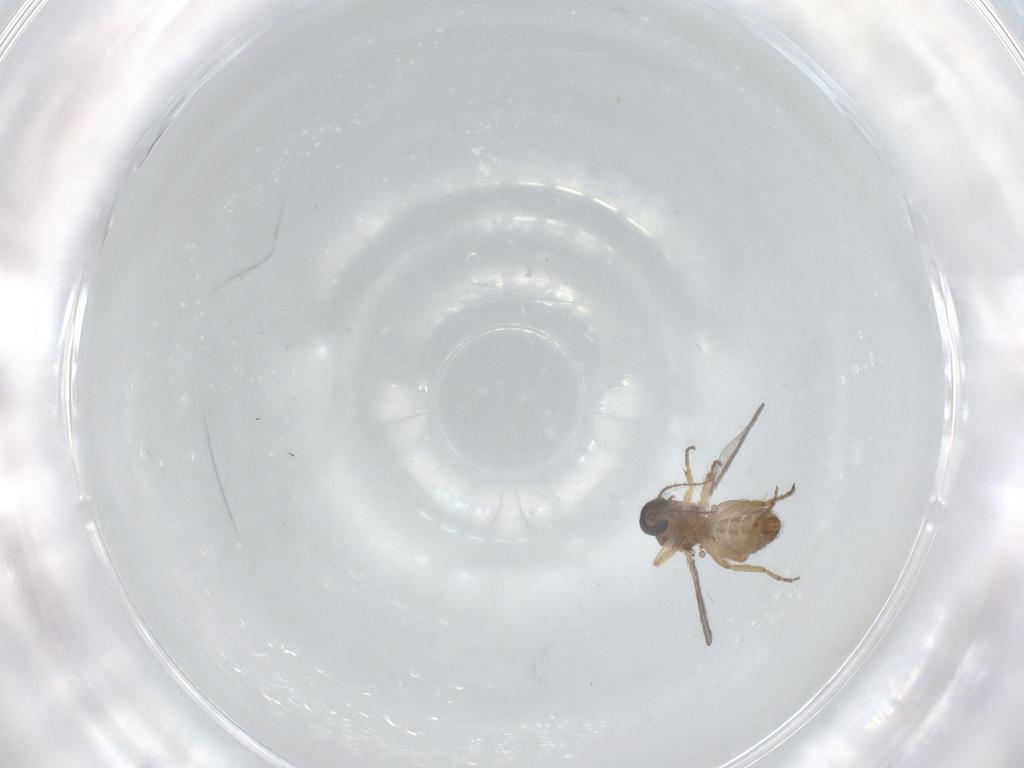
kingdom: Animalia
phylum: Arthropoda
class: Insecta
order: Diptera
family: Ceratopogonidae
